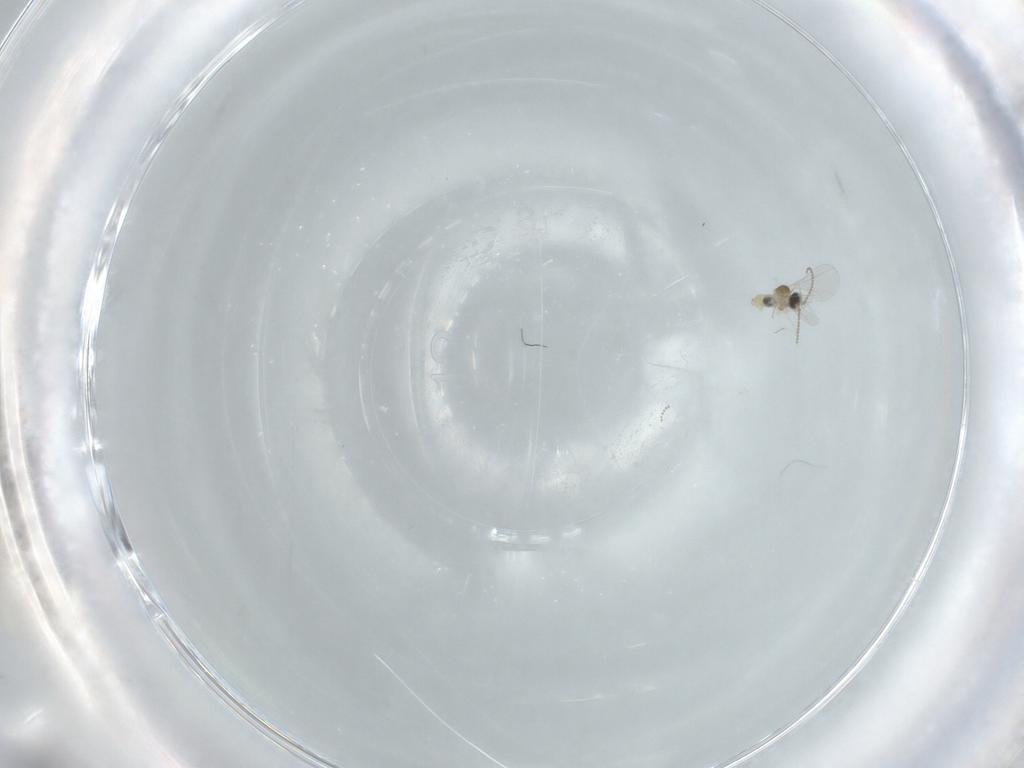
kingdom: Animalia
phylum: Arthropoda
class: Insecta
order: Diptera
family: Cecidomyiidae
